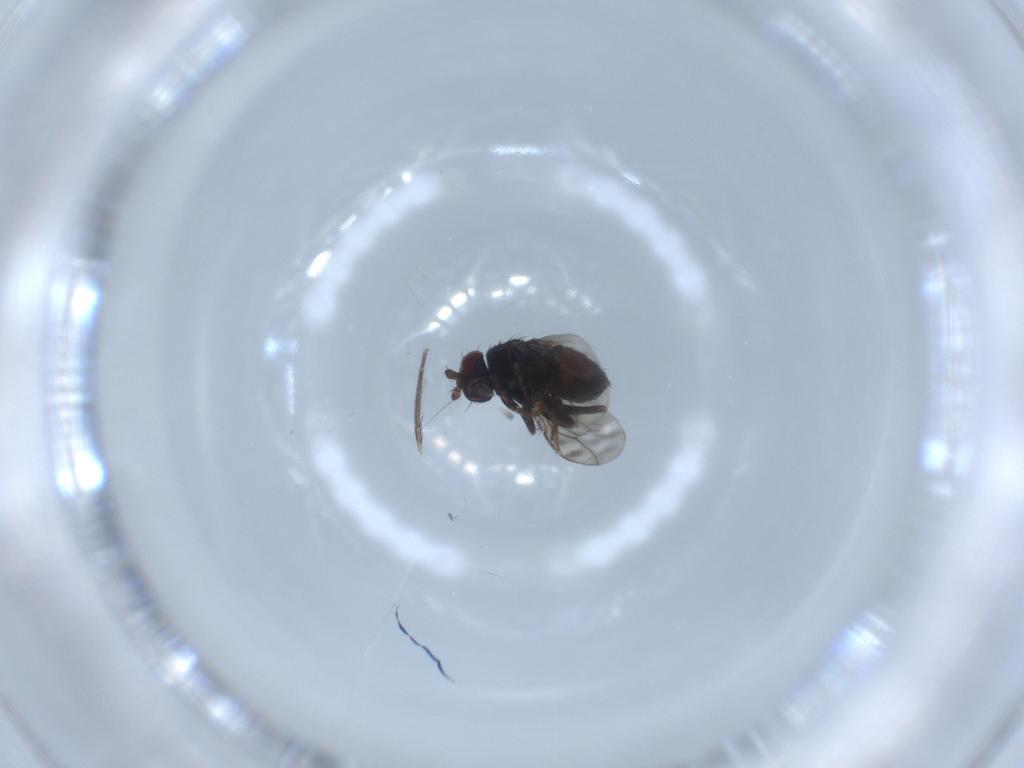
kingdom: Animalia
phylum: Arthropoda
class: Insecta
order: Diptera
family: Sphaeroceridae
